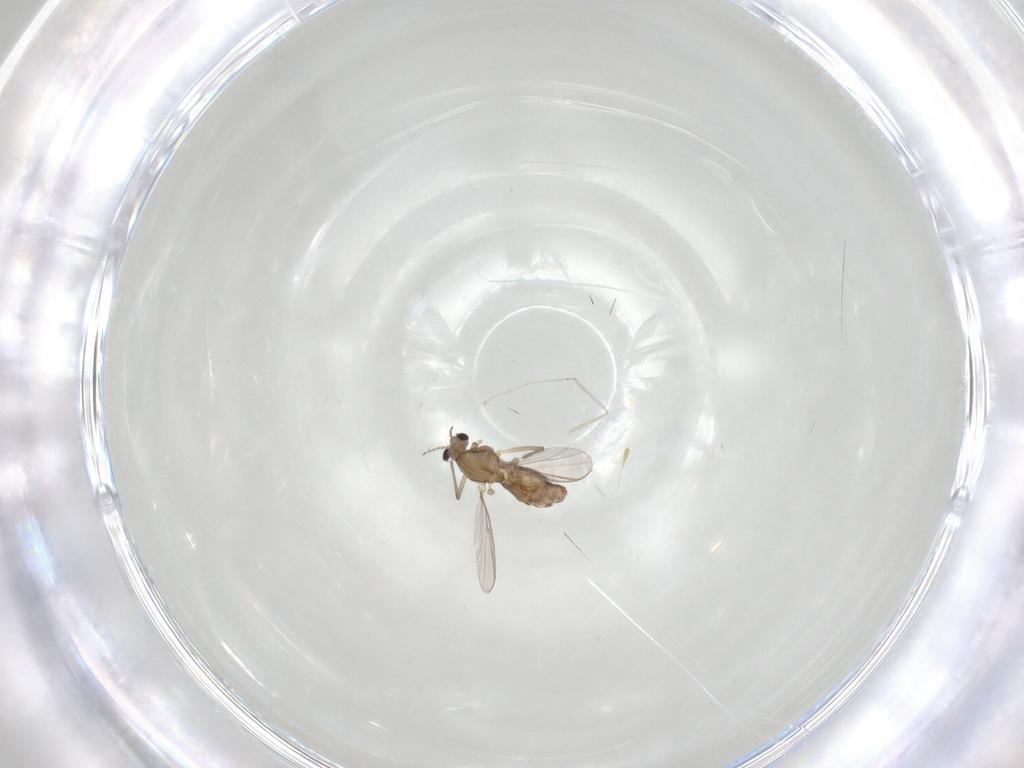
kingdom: Animalia
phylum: Arthropoda
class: Insecta
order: Diptera
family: Chironomidae
